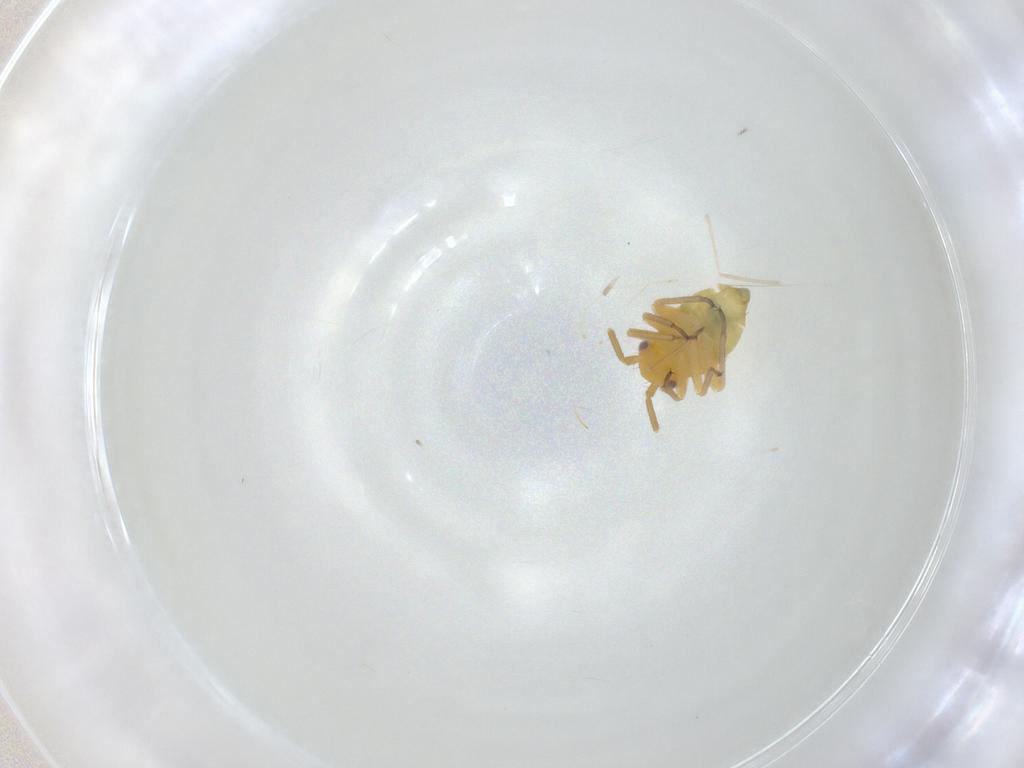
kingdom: Animalia
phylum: Arthropoda
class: Insecta
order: Hemiptera
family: Miridae
